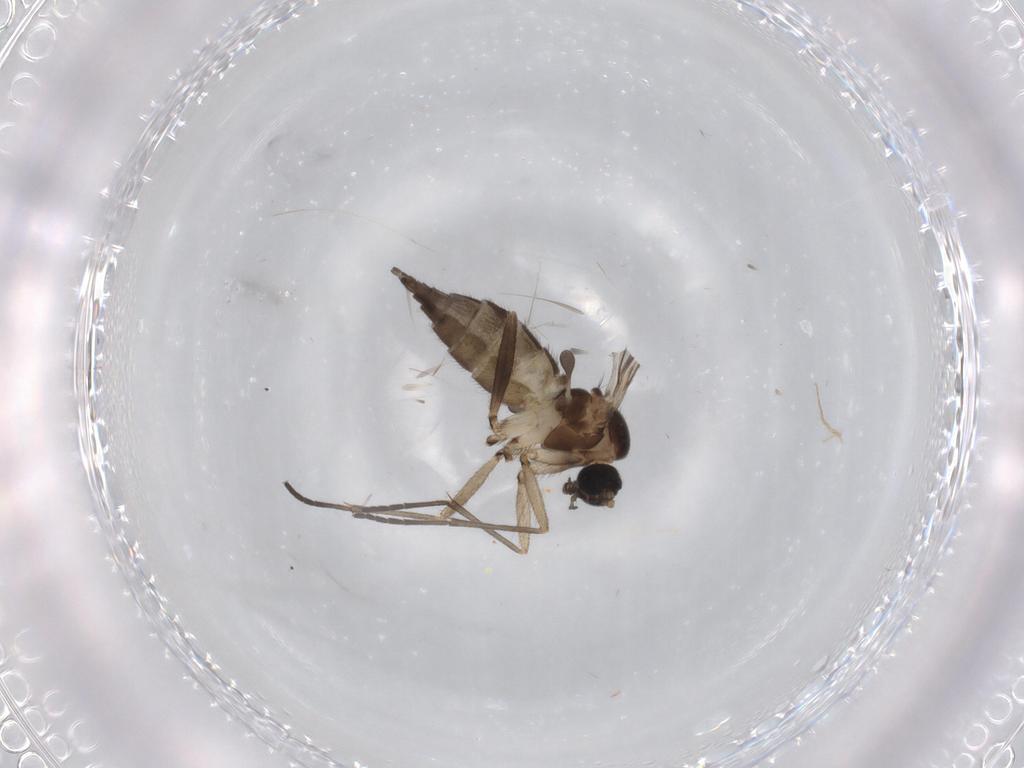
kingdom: Animalia
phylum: Arthropoda
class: Insecta
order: Diptera
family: Sciaridae
